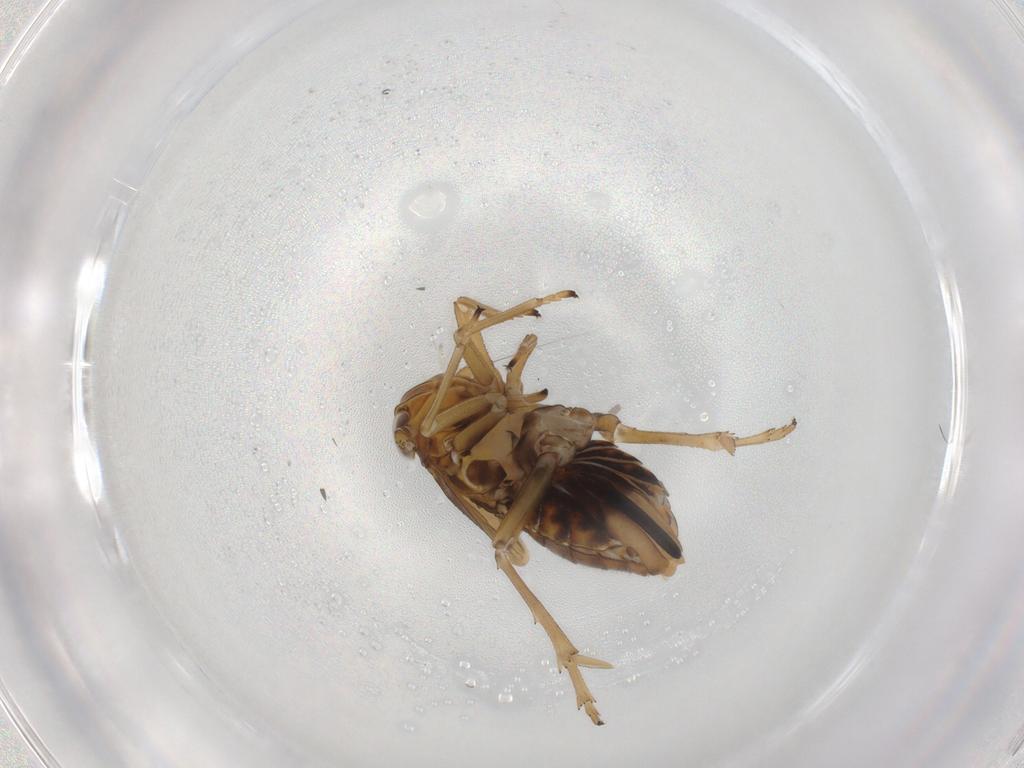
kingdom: Animalia
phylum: Arthropoda
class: Insecta
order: Hemiptera
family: Delphacidae
